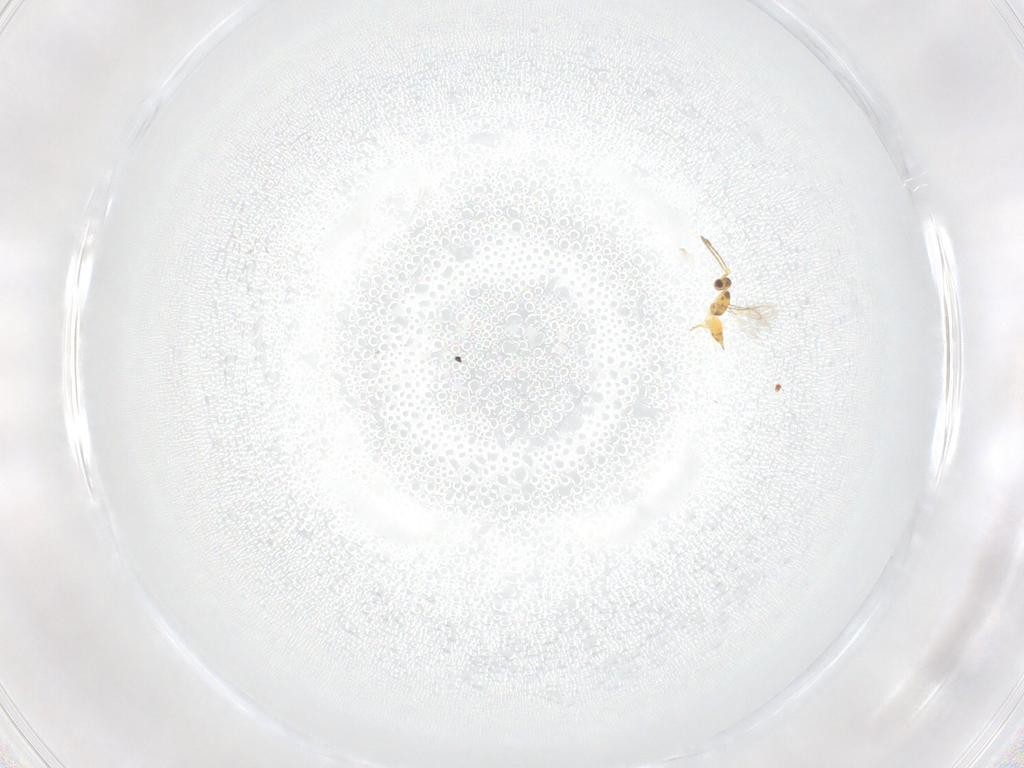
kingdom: Animalia
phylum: Arthropoda
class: Insecta
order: Hymenoptera
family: Mymaridae
